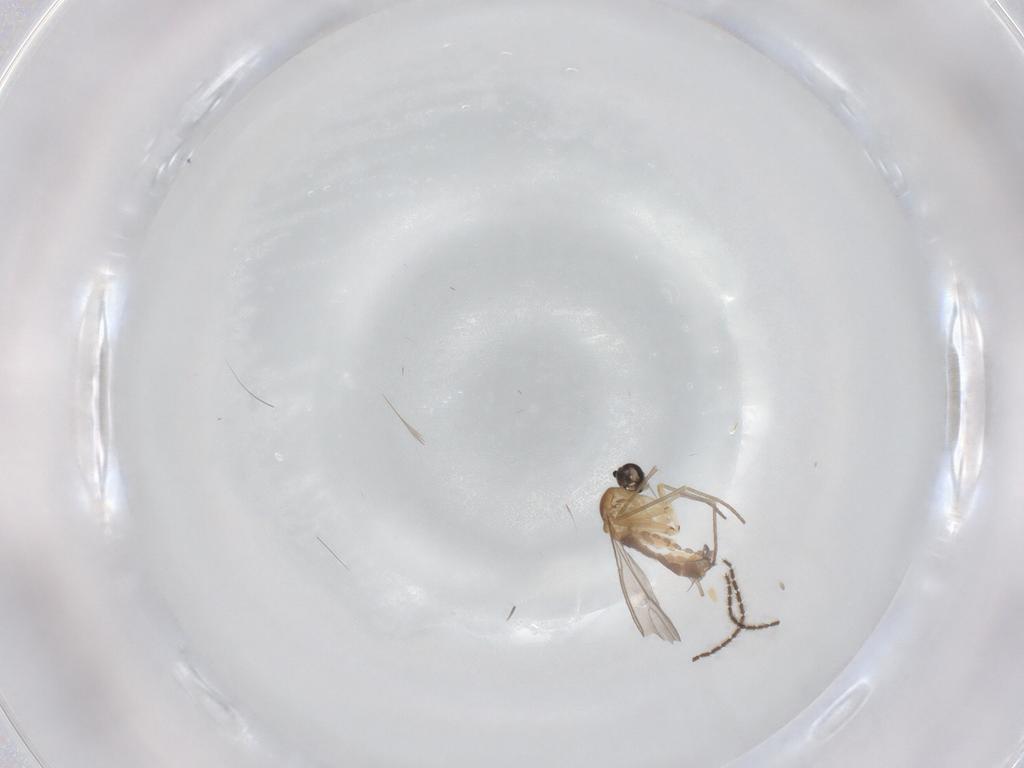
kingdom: Animalia
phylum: Arthropoda
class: Insecta
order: Diptera
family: Sciaridae
